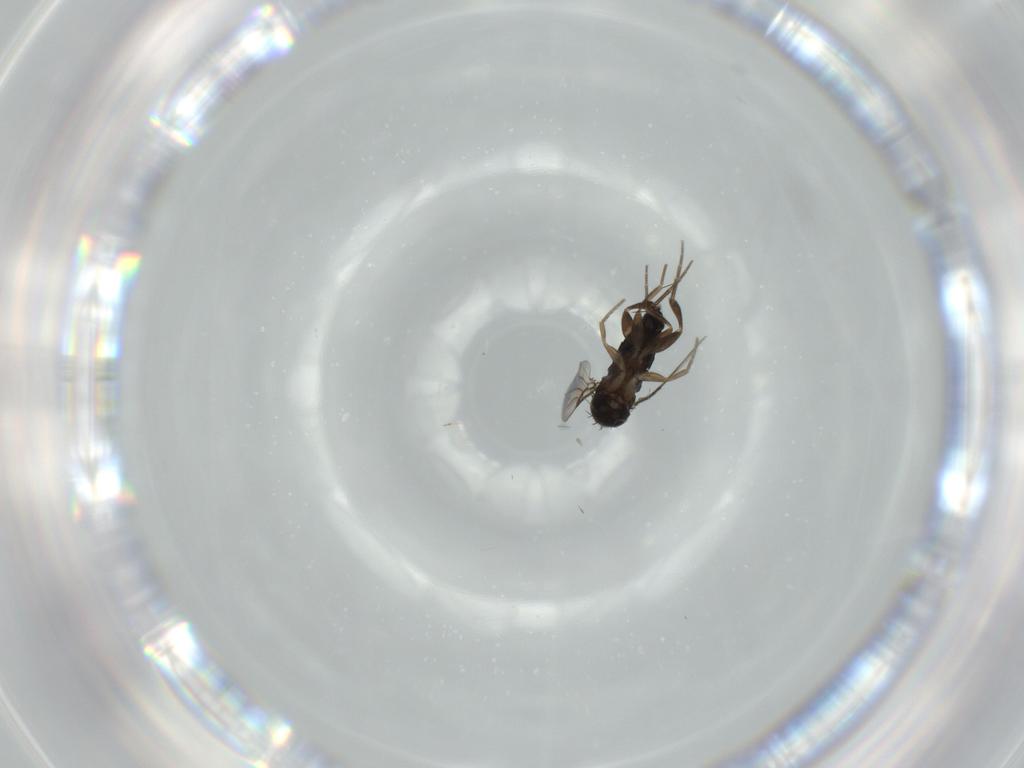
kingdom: Animalia
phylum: Arthropoda
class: Insecta
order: Diptera
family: Phoridae
